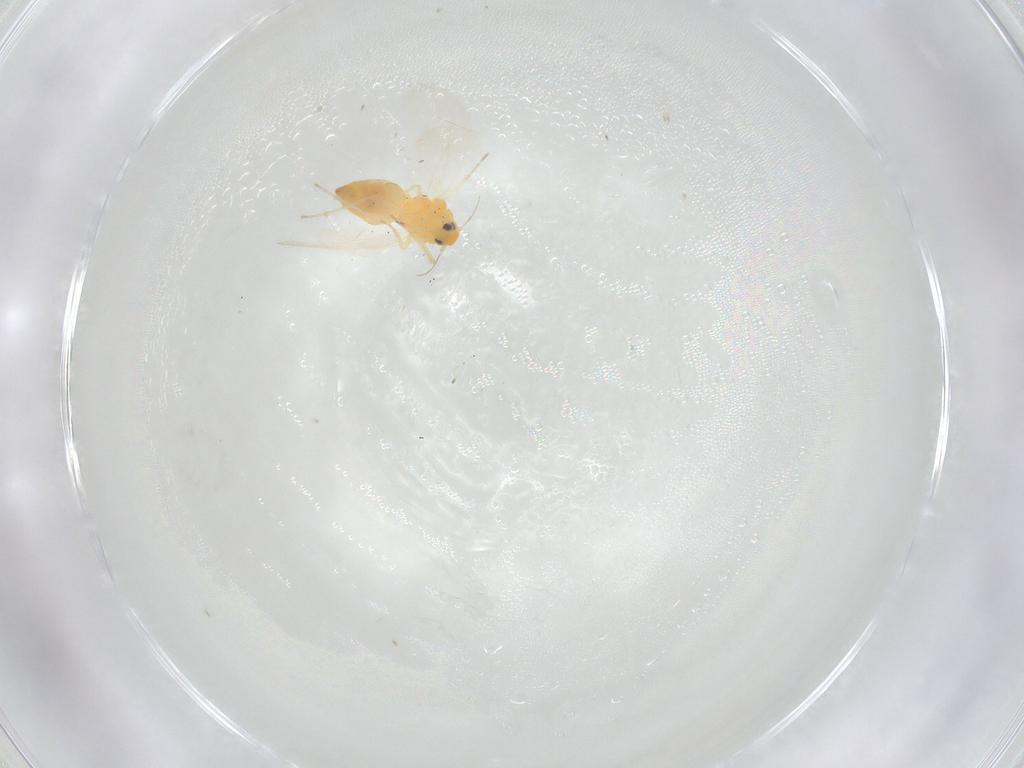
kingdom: Animalia
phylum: Arthropoda
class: Insecta
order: Hemiptera
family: Aleyrodidae
